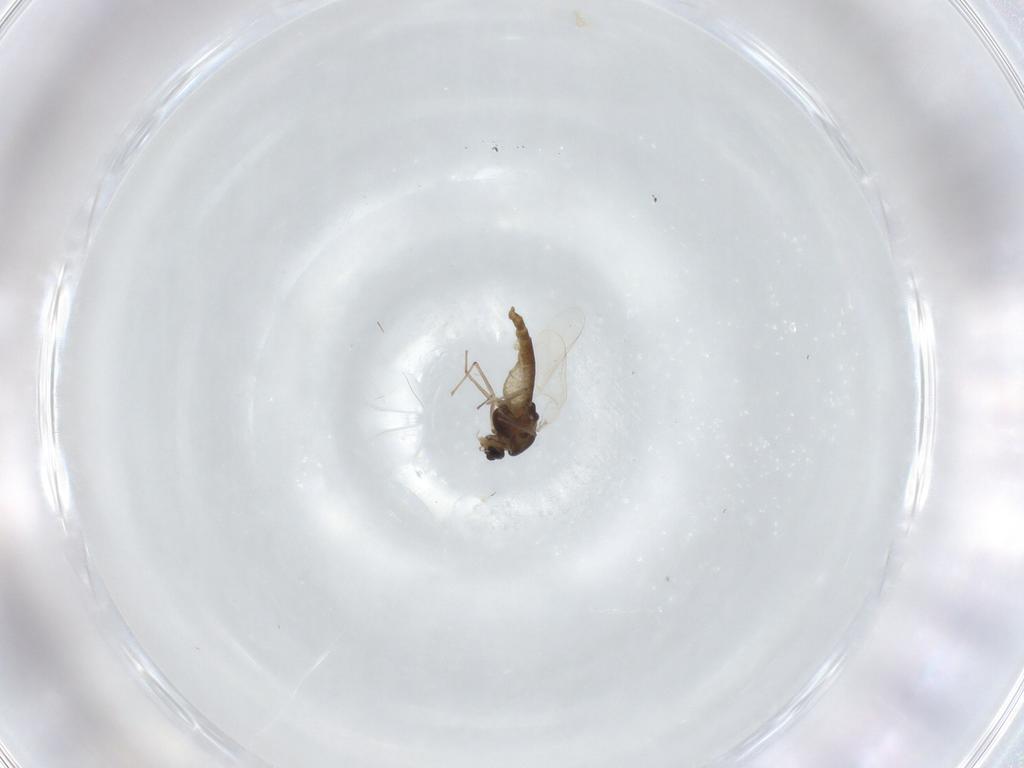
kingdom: Animalia
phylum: Arthropoda
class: Insecta
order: Diptera
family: Chironomidae
